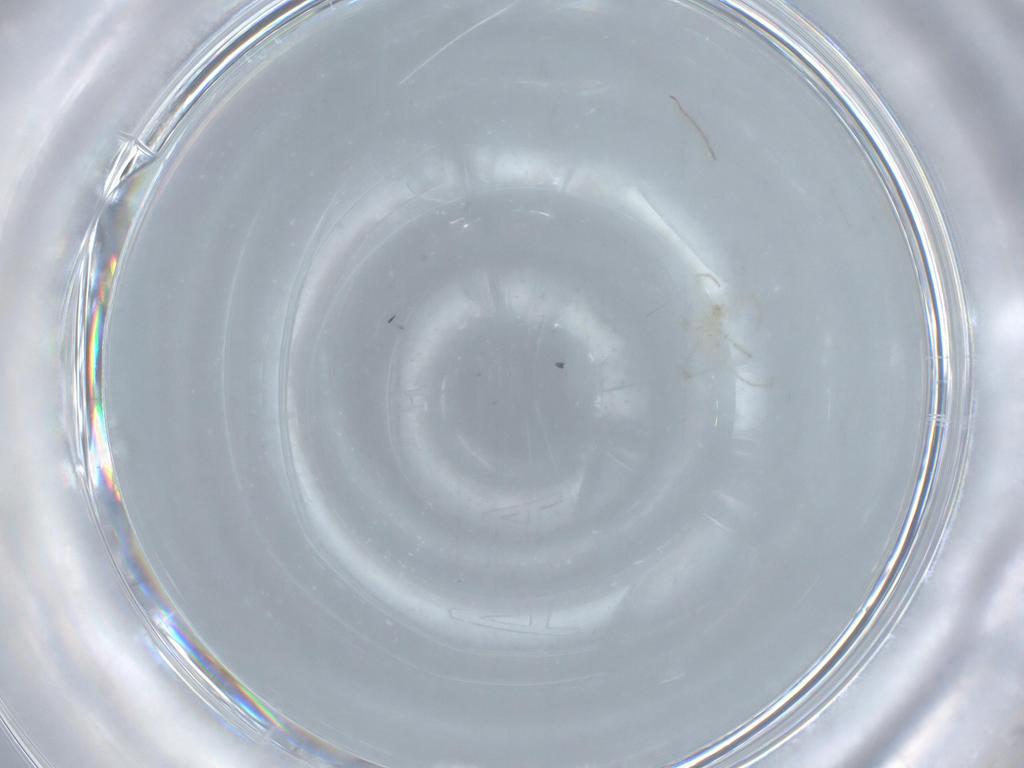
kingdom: Animalia
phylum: Arthropoda
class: Arachnida
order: Trombidiformes
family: Erythraeidae
